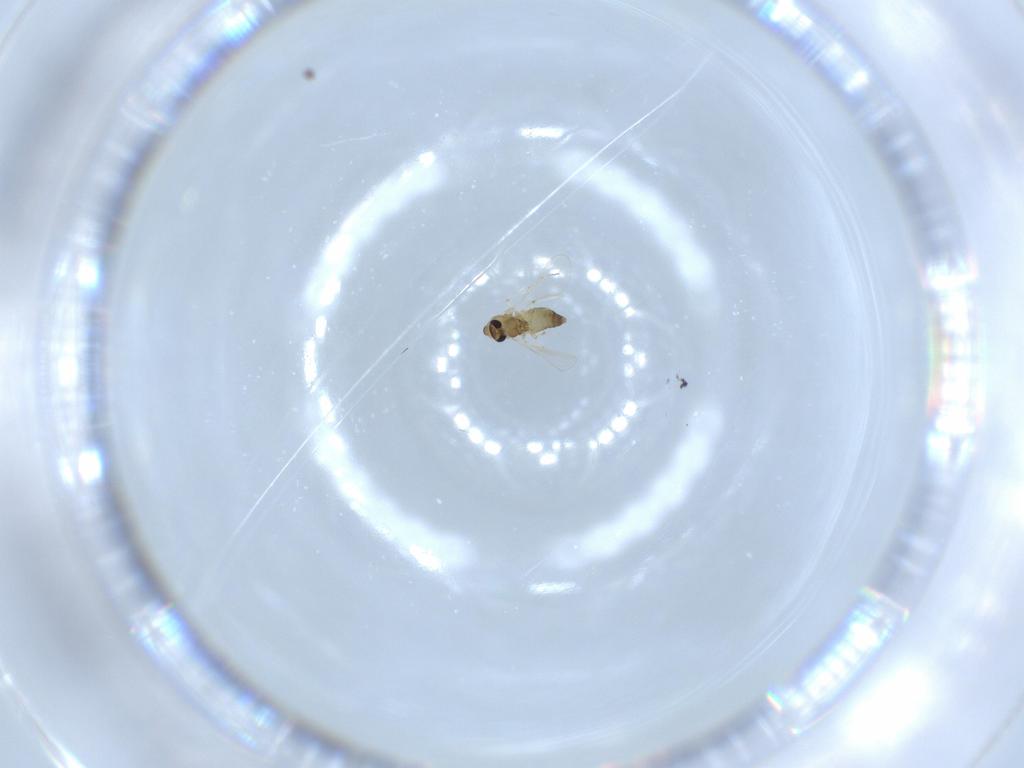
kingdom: Animalia
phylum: Arthropoda
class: Insecta
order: Diptera
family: Chironomidae
